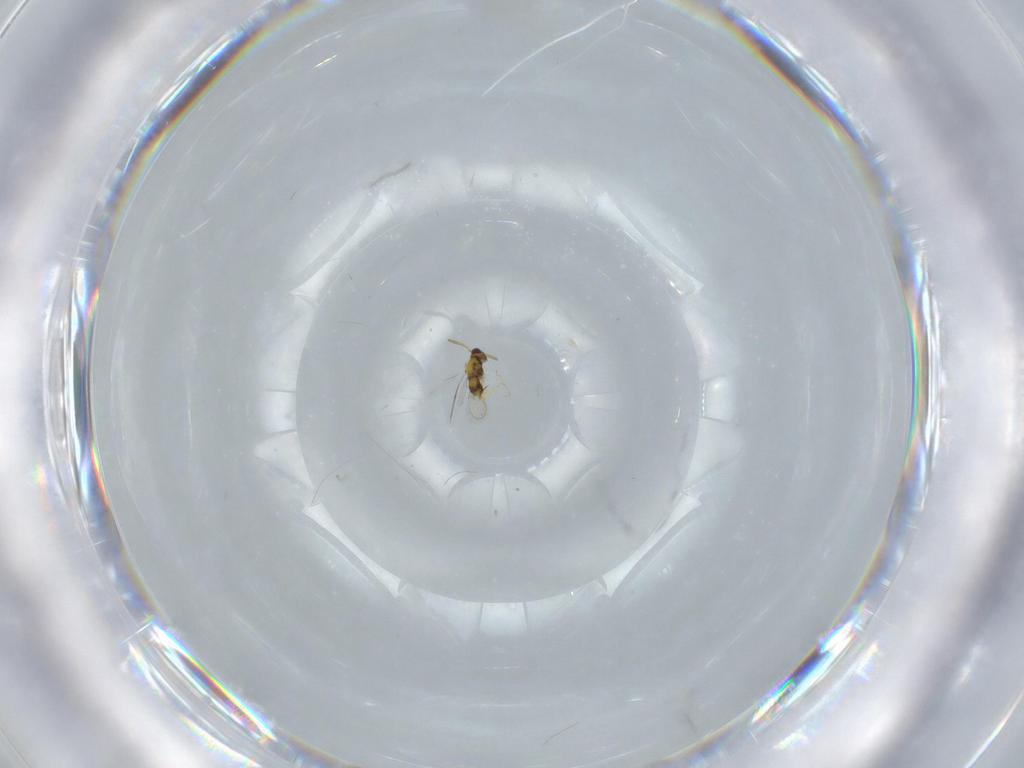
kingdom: Animalia
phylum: Arthropoda
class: Insecta
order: Hymenoptera
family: Aphelinidae
